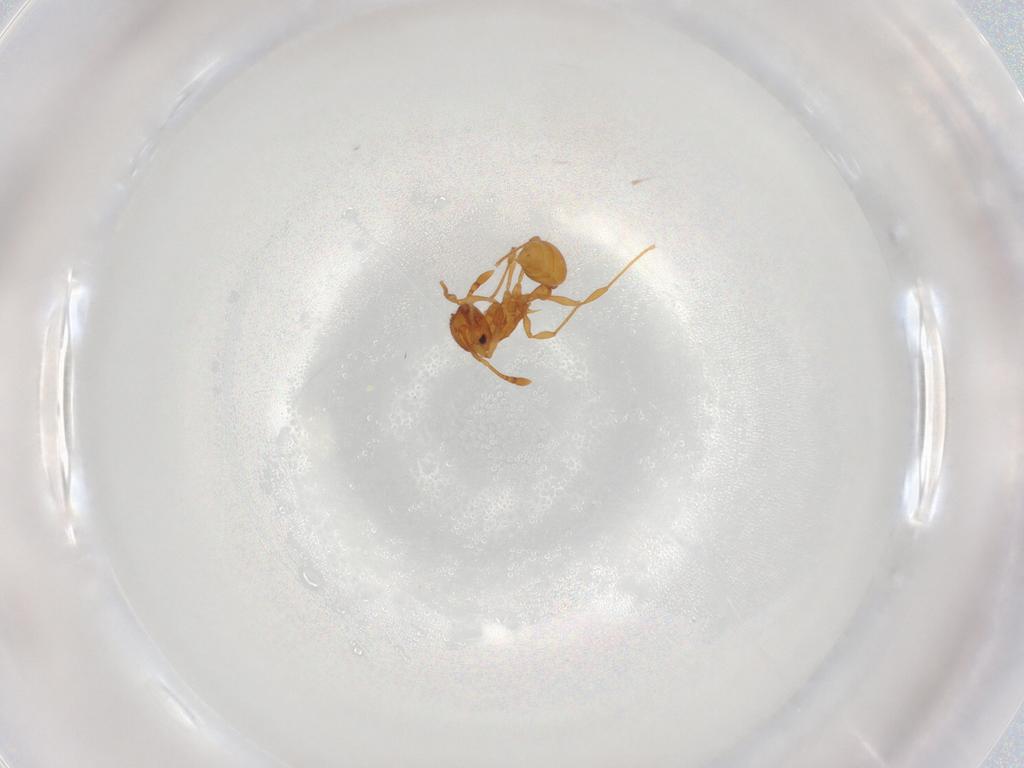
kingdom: Animalia
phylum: Arthropoda
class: Insecta
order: Hymenoptera
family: Formicidae
